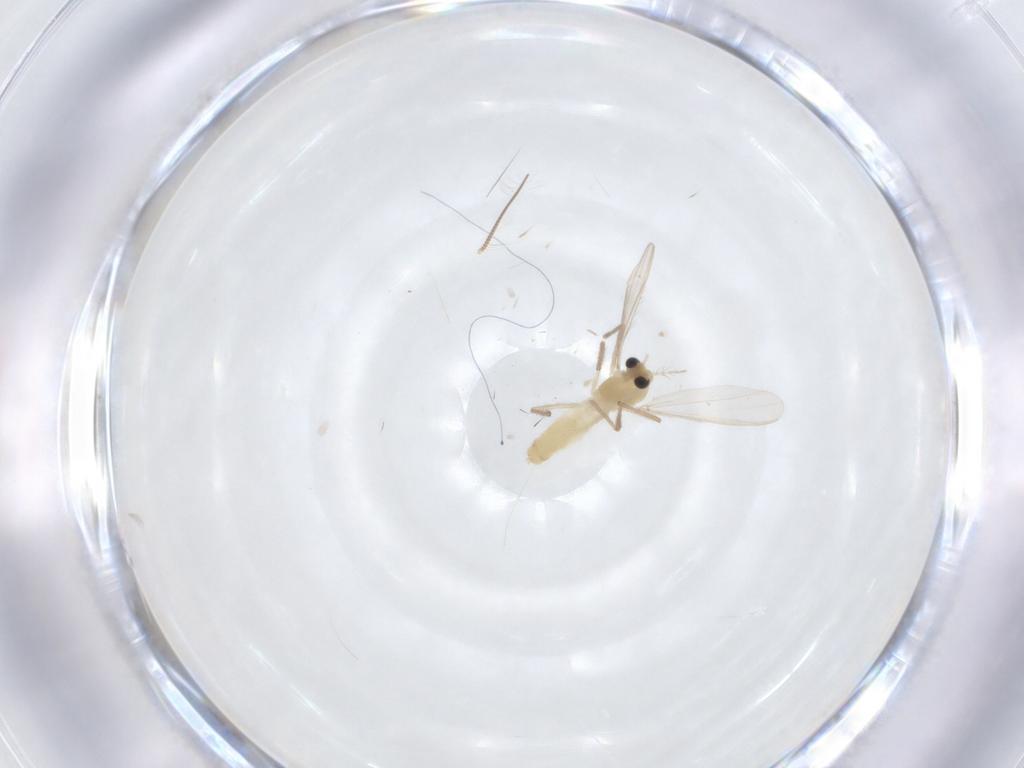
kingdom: Animalia
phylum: Arthropoda
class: Insecta
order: Diptera
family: Chironomidae
